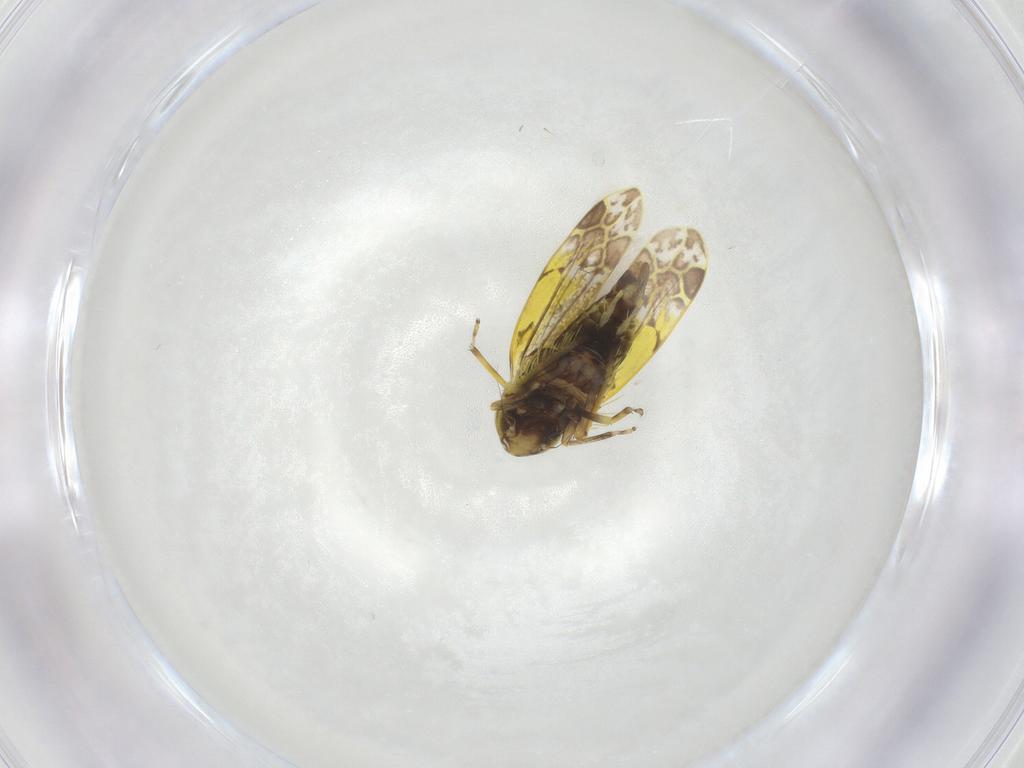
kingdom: Animalia
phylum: Arthropoda
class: Insecta
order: Hemiptera
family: Cicadellidae
